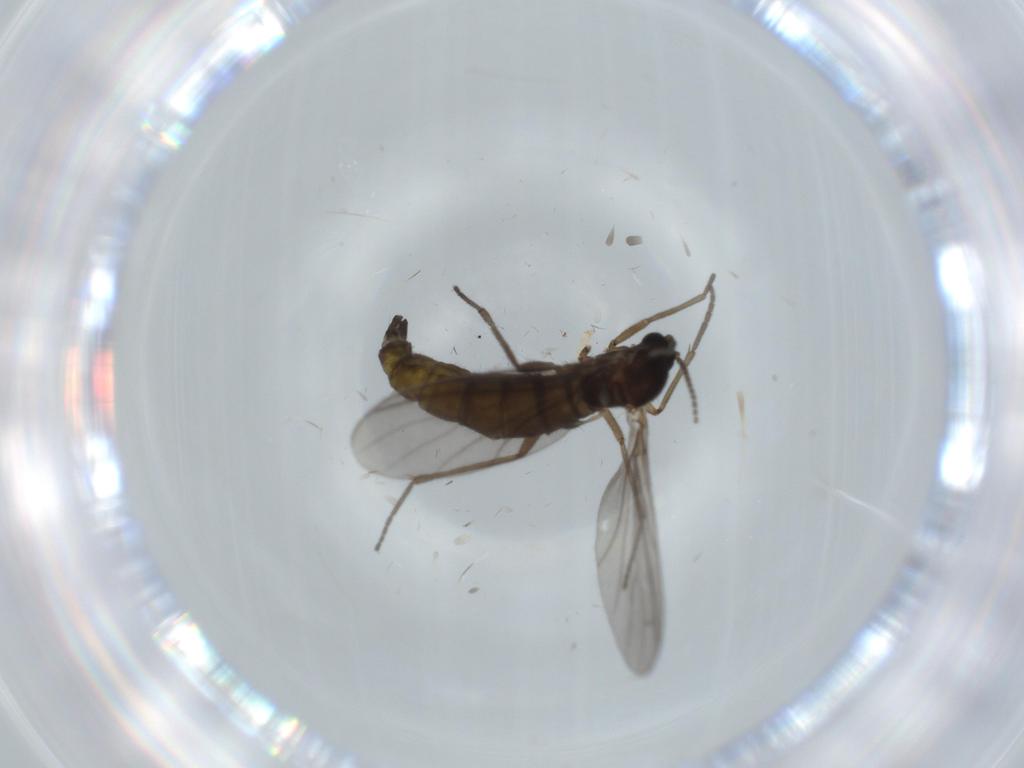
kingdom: Animalia
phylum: Arthropoda
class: Insecta
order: Diptera
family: Sciaridae
